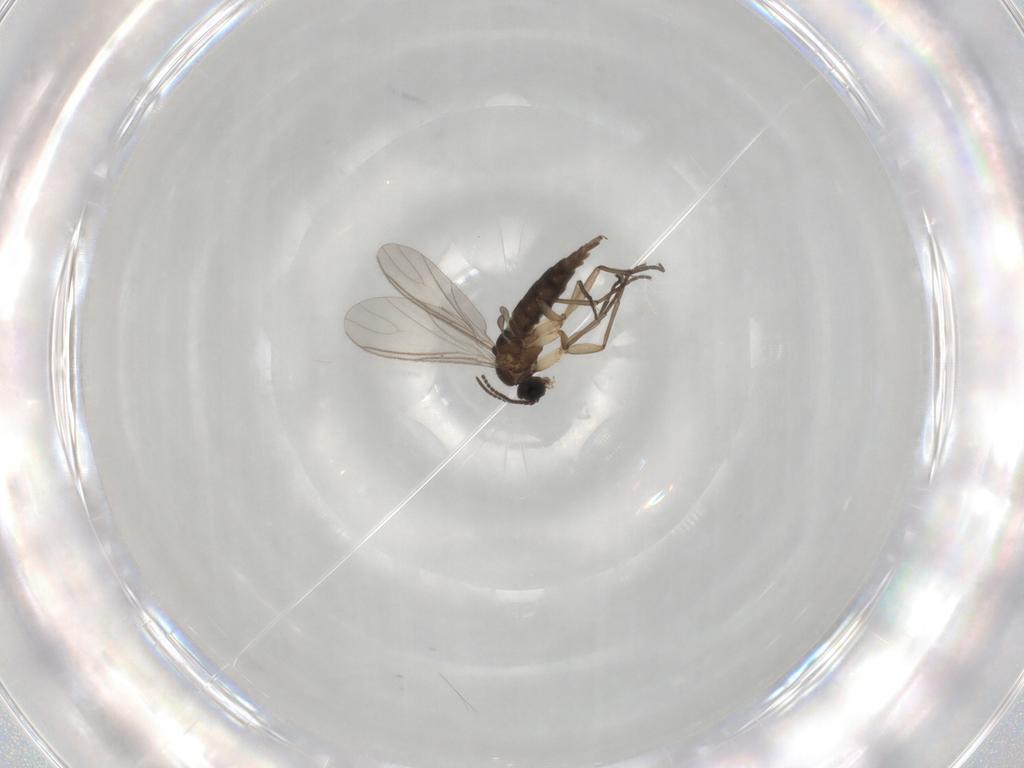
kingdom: Animalia
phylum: Arthropoda
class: Insecta
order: Diptera
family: Sciaridae
